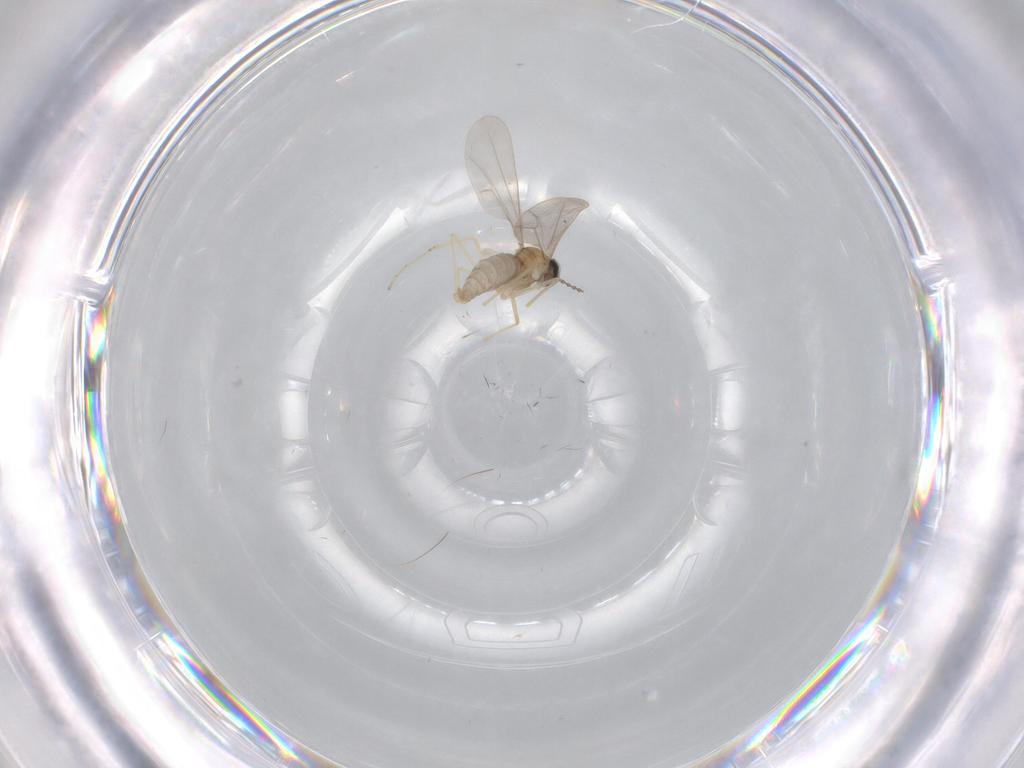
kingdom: Animalia
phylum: Arthropoda
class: Insecta
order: Diptera
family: Cecidomyiidae
